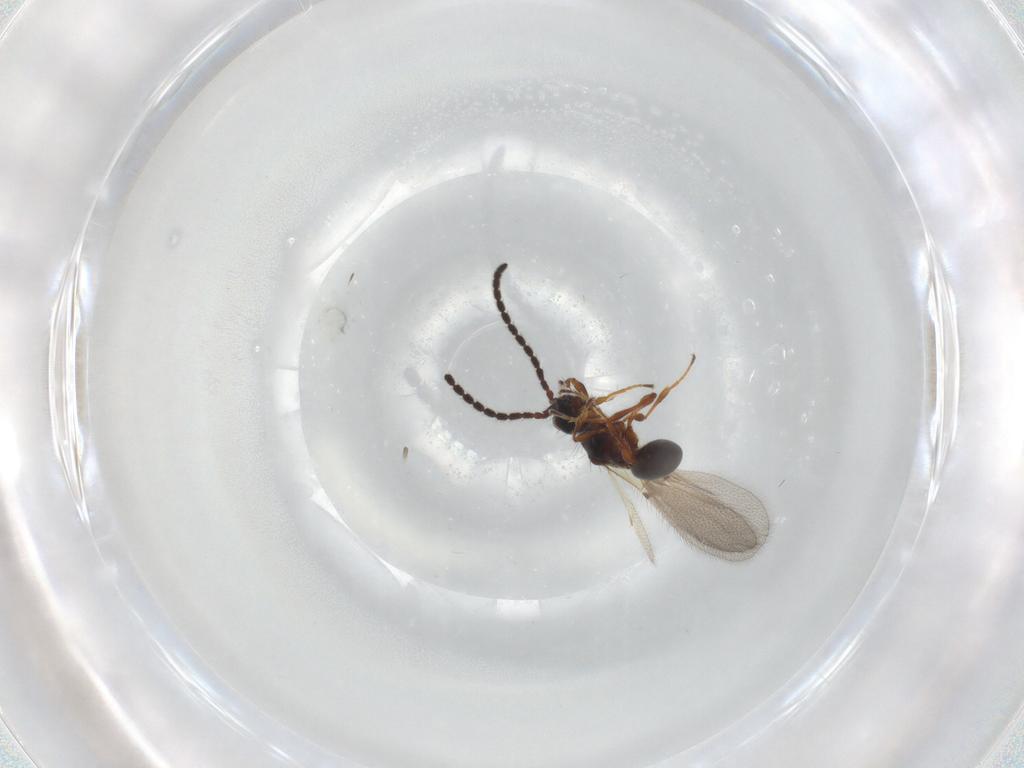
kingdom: Animalia
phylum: Arthropoda
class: Insecta
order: Hymenoptera
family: Diapriidae
